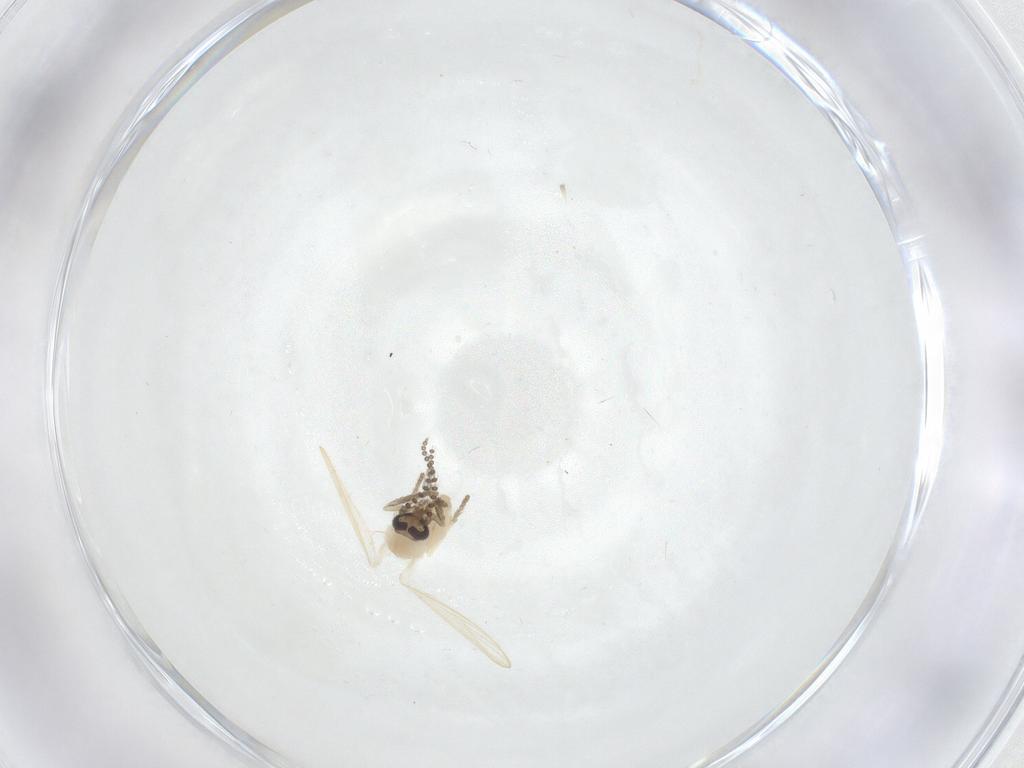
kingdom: Animalia
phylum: Arthropoda
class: Insecta
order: Diptera
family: Psychodidae
